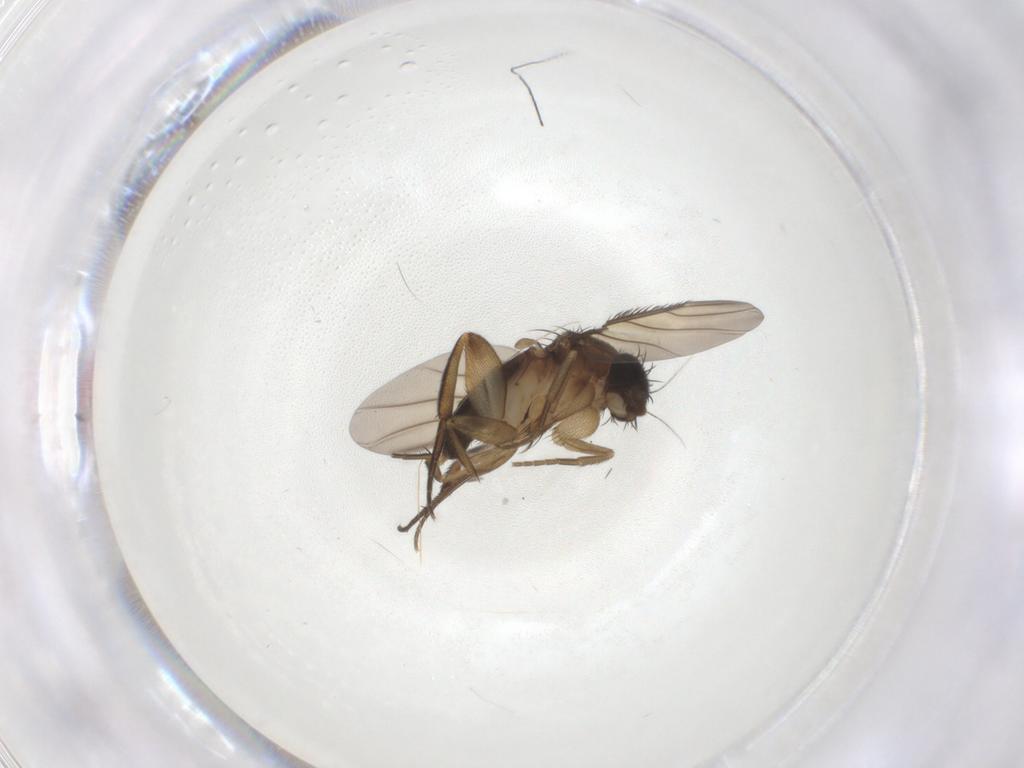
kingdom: Animalia
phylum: Arthropoda
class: Insecta
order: Diptera
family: Phoridae
